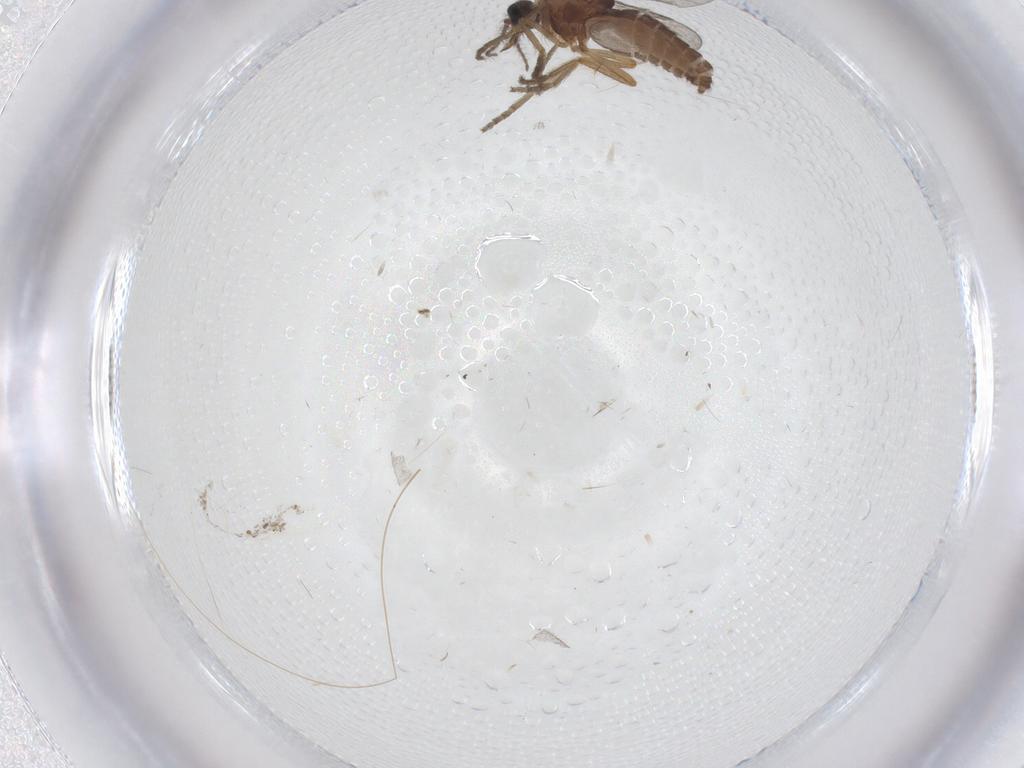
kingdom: Animalia
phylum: Arthropoda
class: Insecta
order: Diptera
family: Ceratopogonidae
